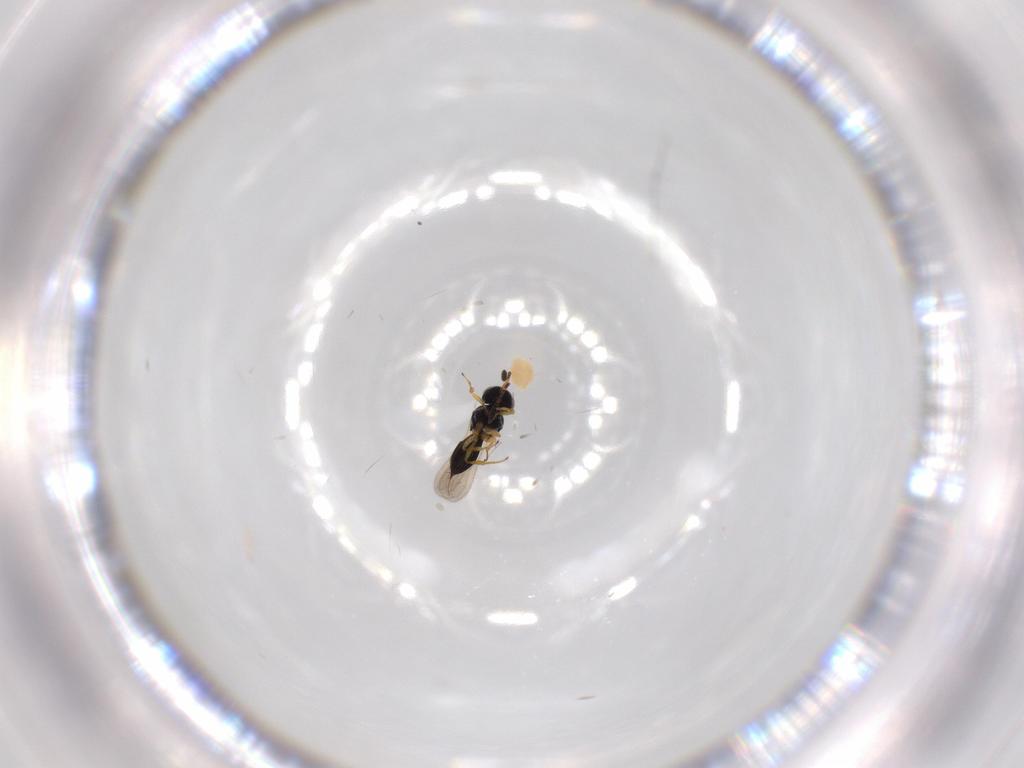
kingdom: Animalia
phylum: Arthropoda
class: Insecta
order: Hymenoptera
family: Scelionidae
